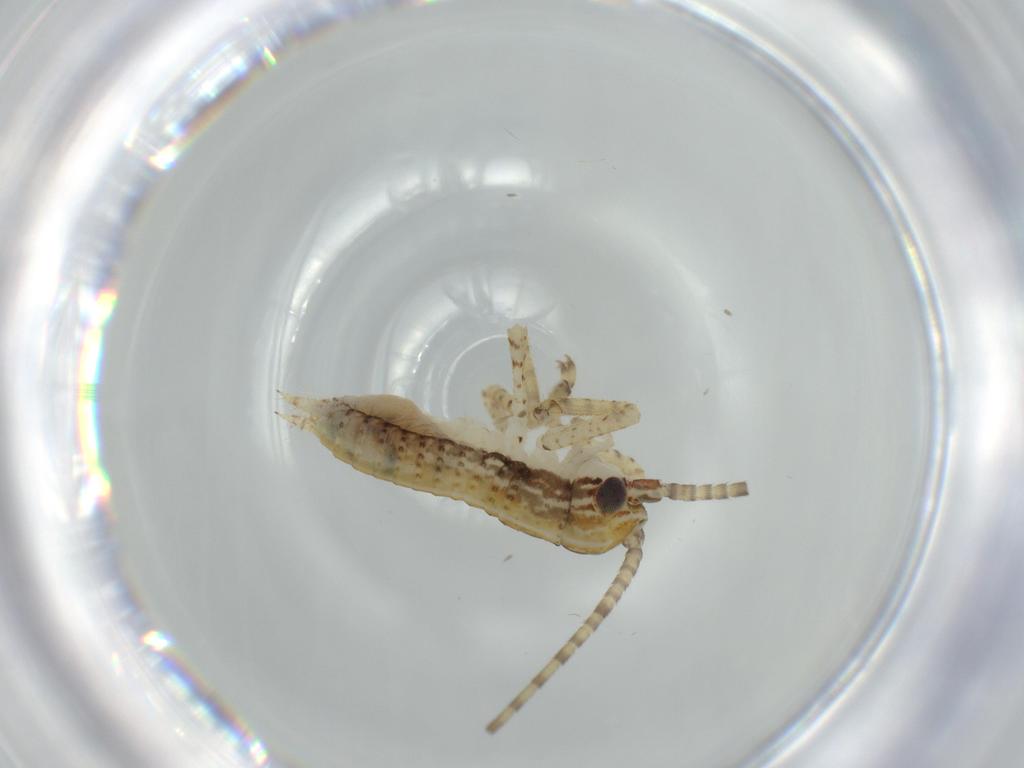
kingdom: Animalia
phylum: Arthropoda
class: Insecta
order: Orthoptera
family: Gryllidae
